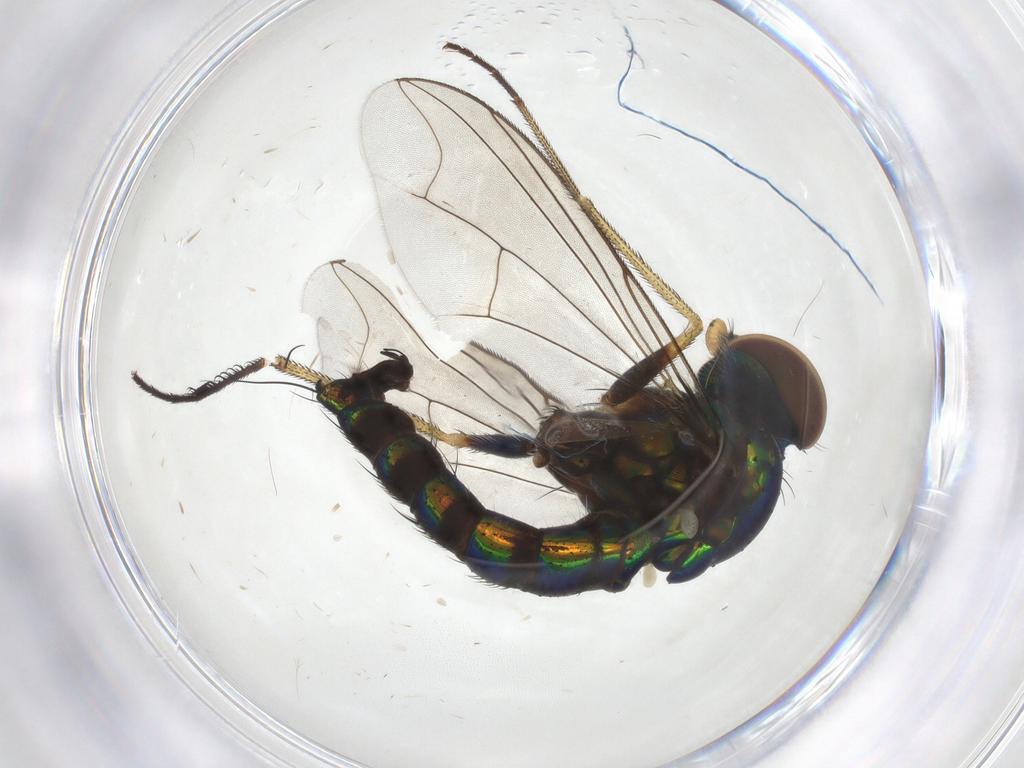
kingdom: Animalia
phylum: Arthropoda
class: Insecta
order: Diptera
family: Dolichopodidae
